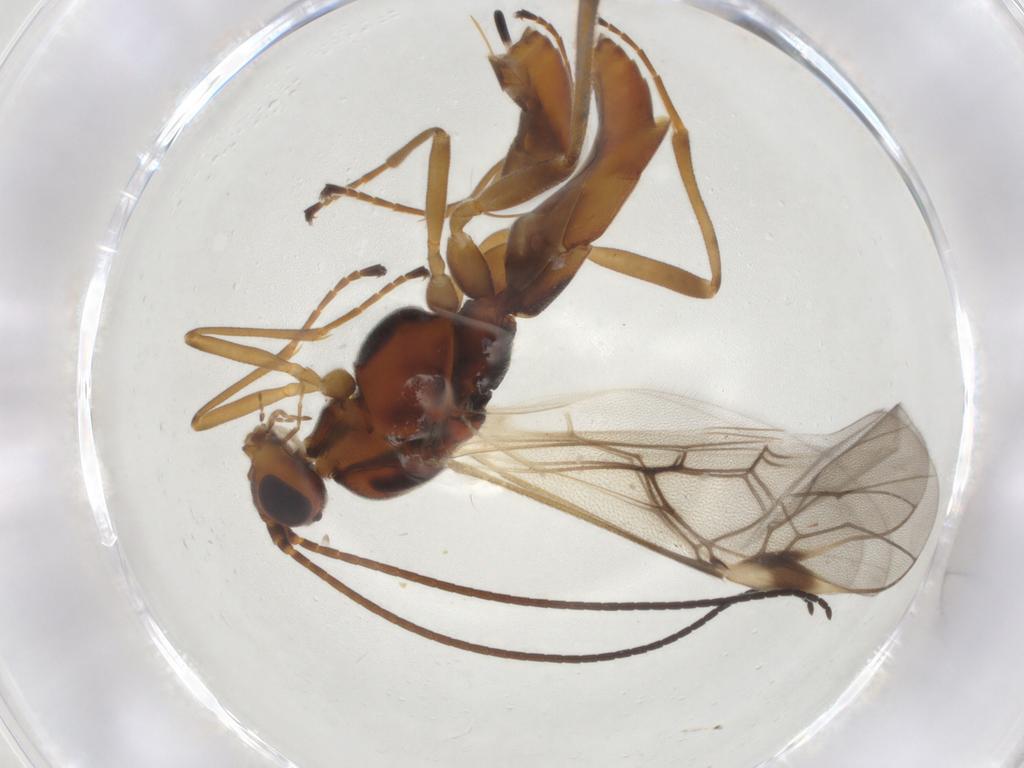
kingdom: Animalia
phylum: Arthropoda
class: Insecta
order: Hymenoptera
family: Braconidae
